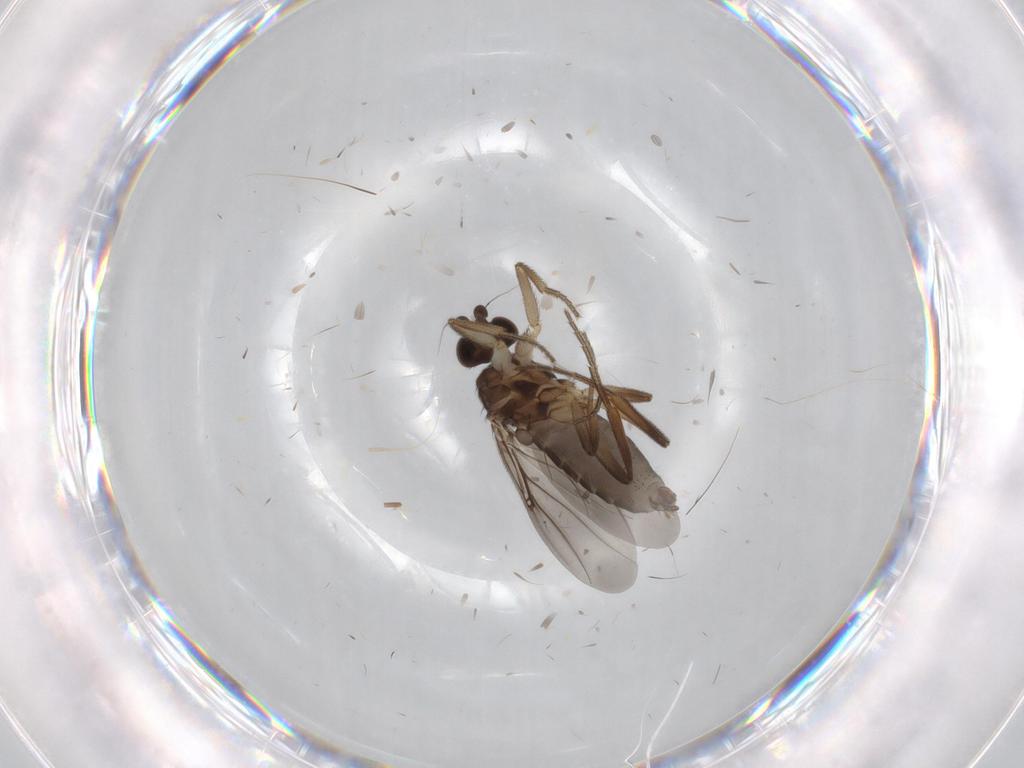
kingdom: Animalia
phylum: Arthropoda
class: Insecta
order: Diptera
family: Phoridae
